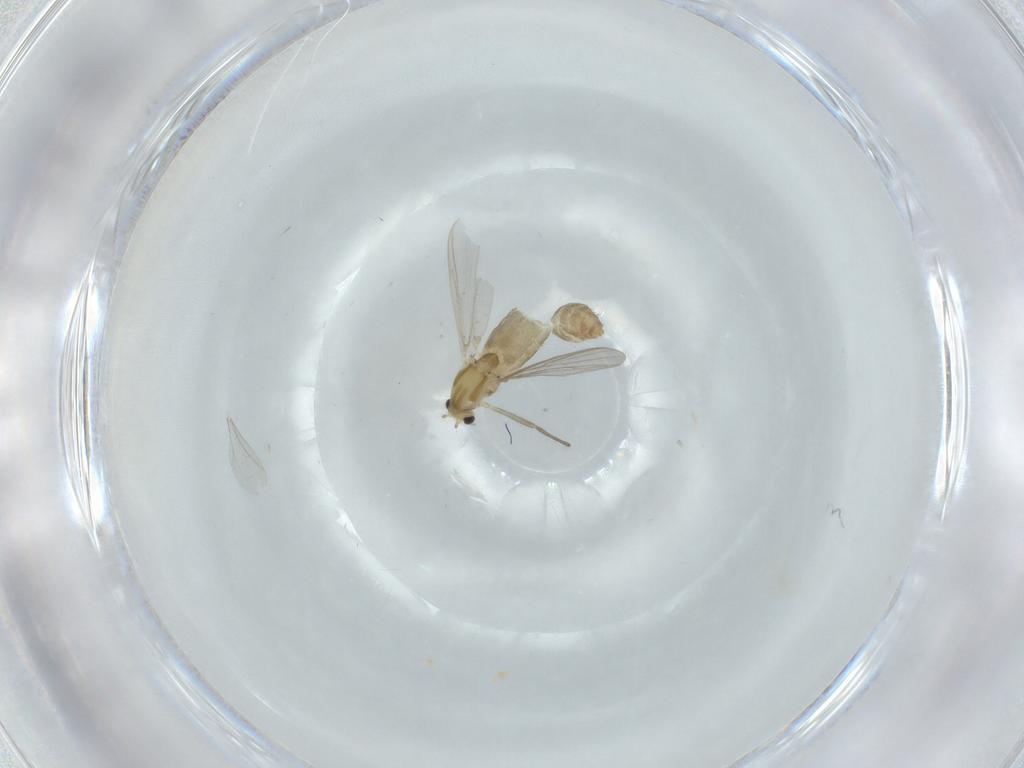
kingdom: Animalia
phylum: Arthropoda
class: Insecta
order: Diptera
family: Chironomidae
